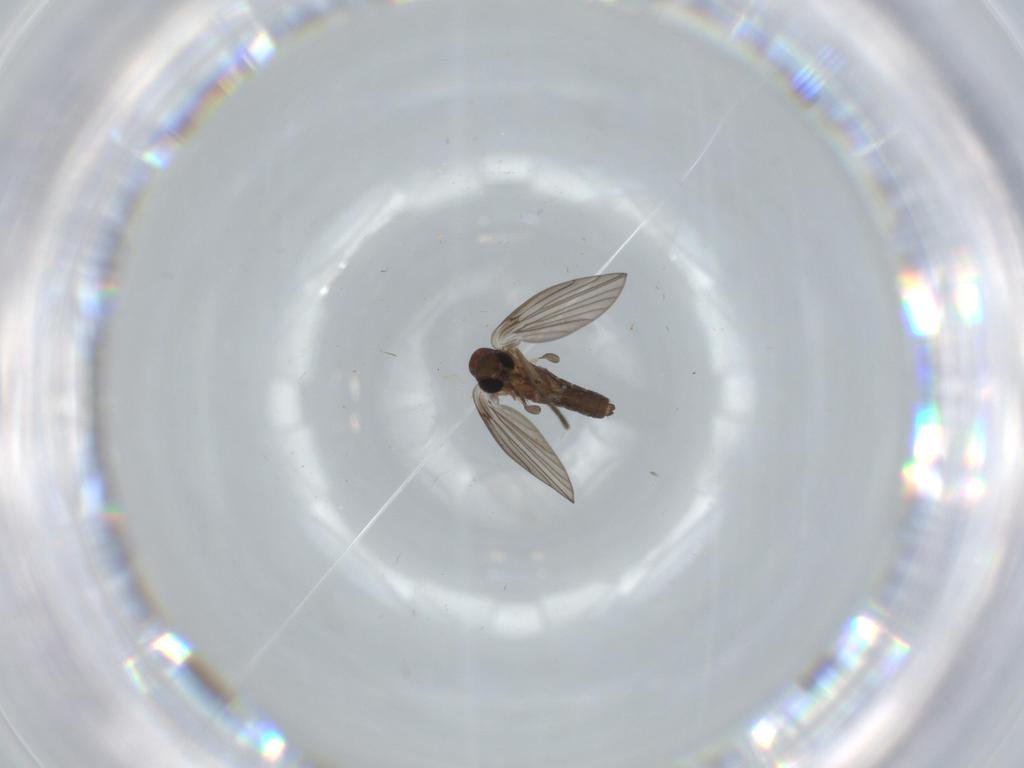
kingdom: Animalia
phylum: Arthropoda
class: Insecta
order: Diptera
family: Psychodidae
